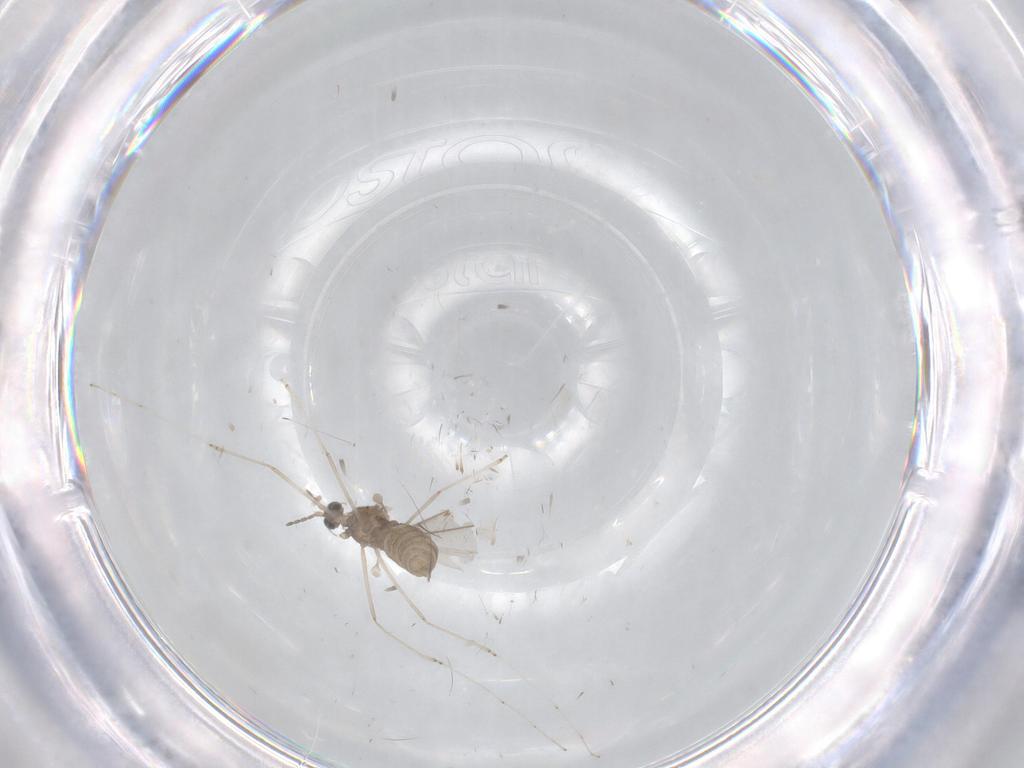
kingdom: Animalia
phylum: Arthropoda
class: Insecta
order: Diptera
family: Cecidomyiidae
